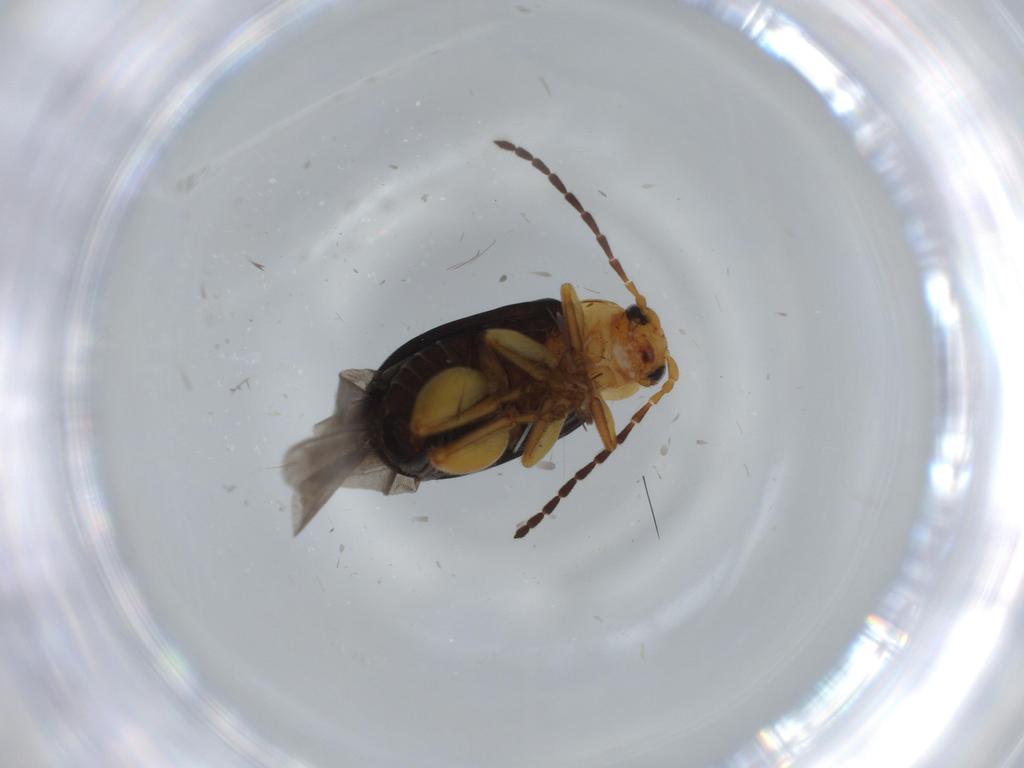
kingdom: Animalia
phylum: Arthropoda
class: Insecta
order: Coleoptera
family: Chrysomelidae
